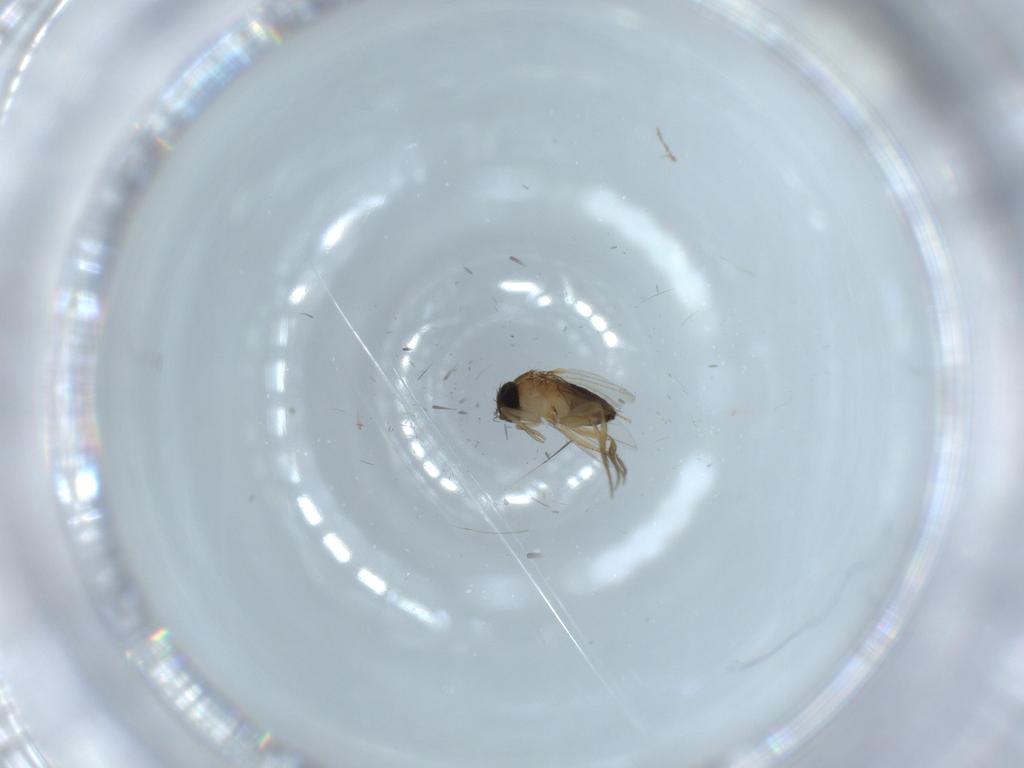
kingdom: Animalia
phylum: Arthropoda
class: Insecta
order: Diptera
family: Phoridae
